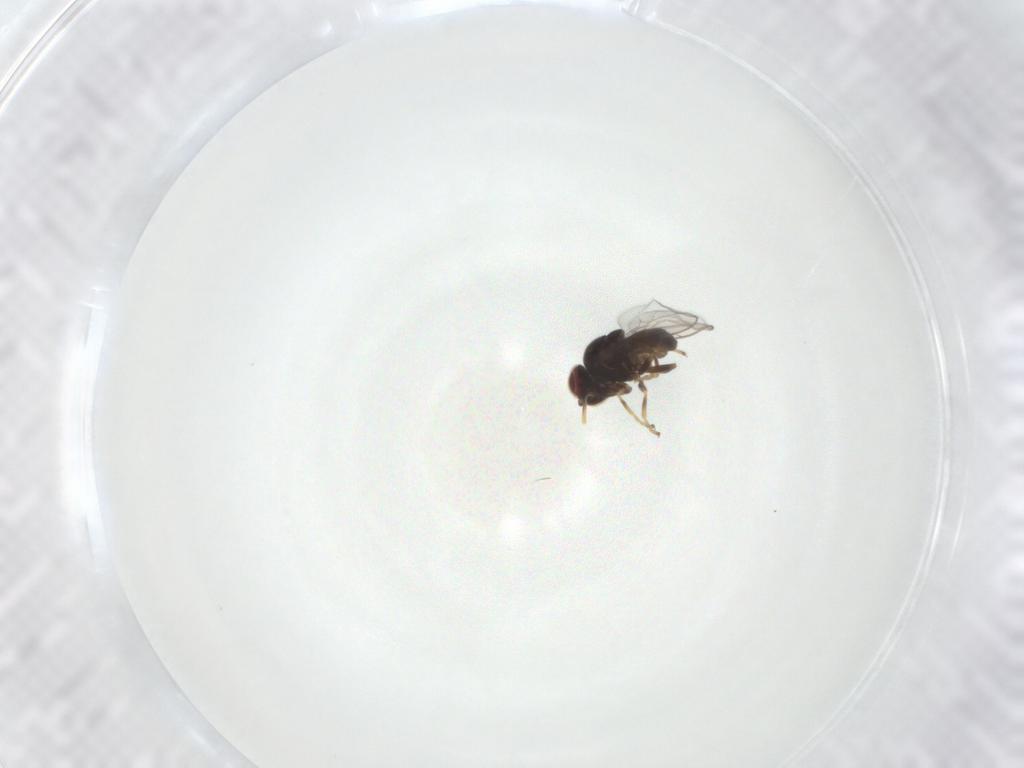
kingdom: Animalia
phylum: Arthropoda
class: Insecta
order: Diptera
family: Chloropidae
